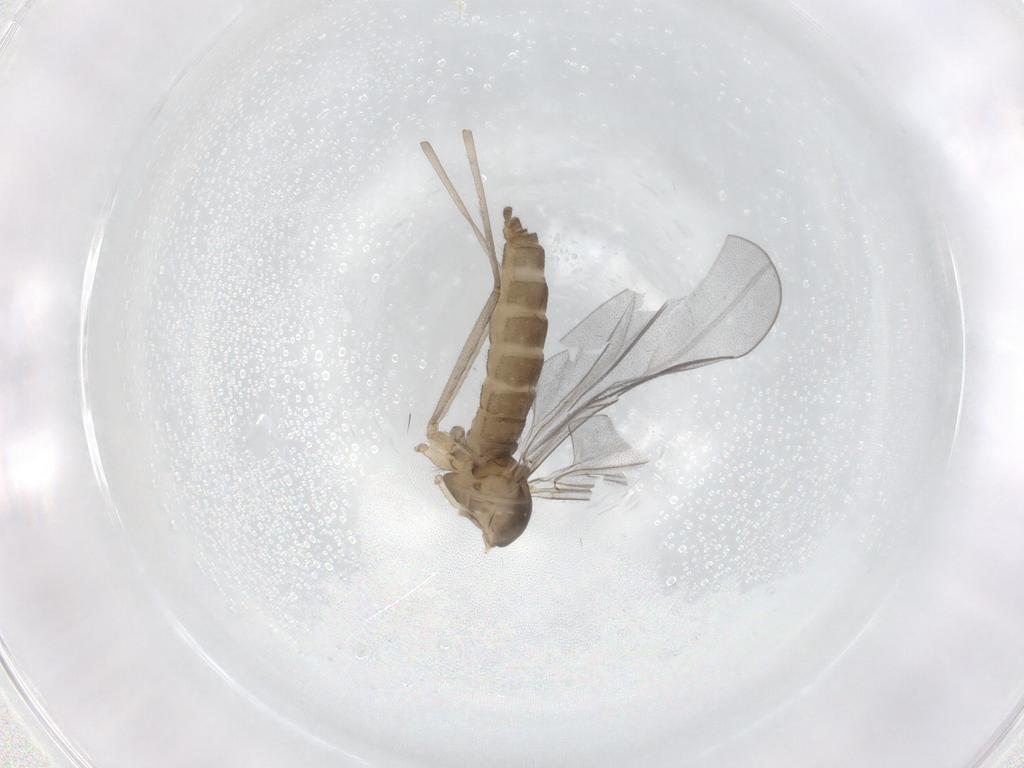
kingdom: Animalia
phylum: Arthropoda
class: Insecta
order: Diptera
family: Cecidomyiidae
